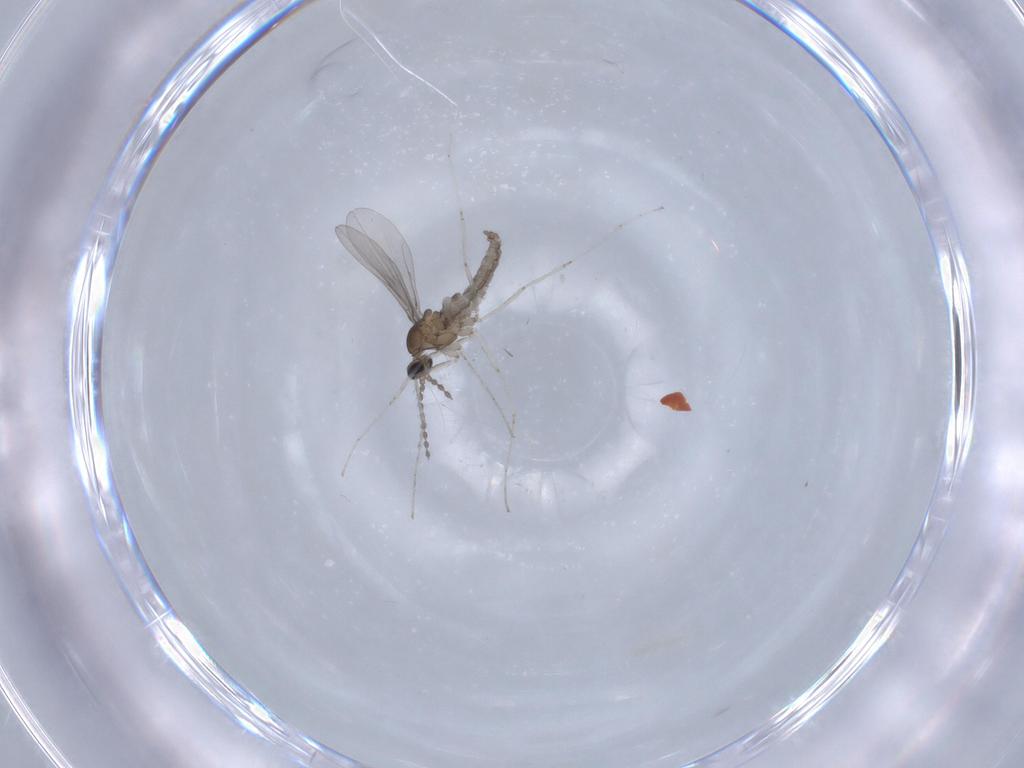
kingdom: Animalia
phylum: Arthropoda
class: Insecta
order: Diptera
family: Cecidomyiidae
